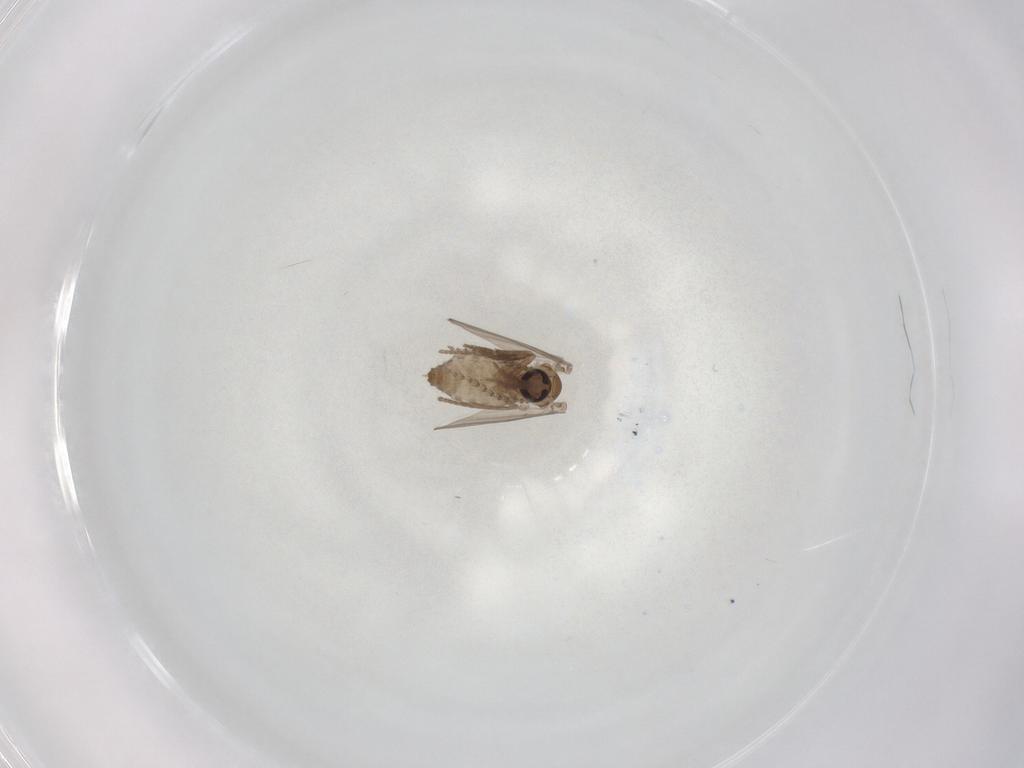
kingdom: Animalia
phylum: Arthropoda
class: Insecta
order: Diptera
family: Psychodidae
